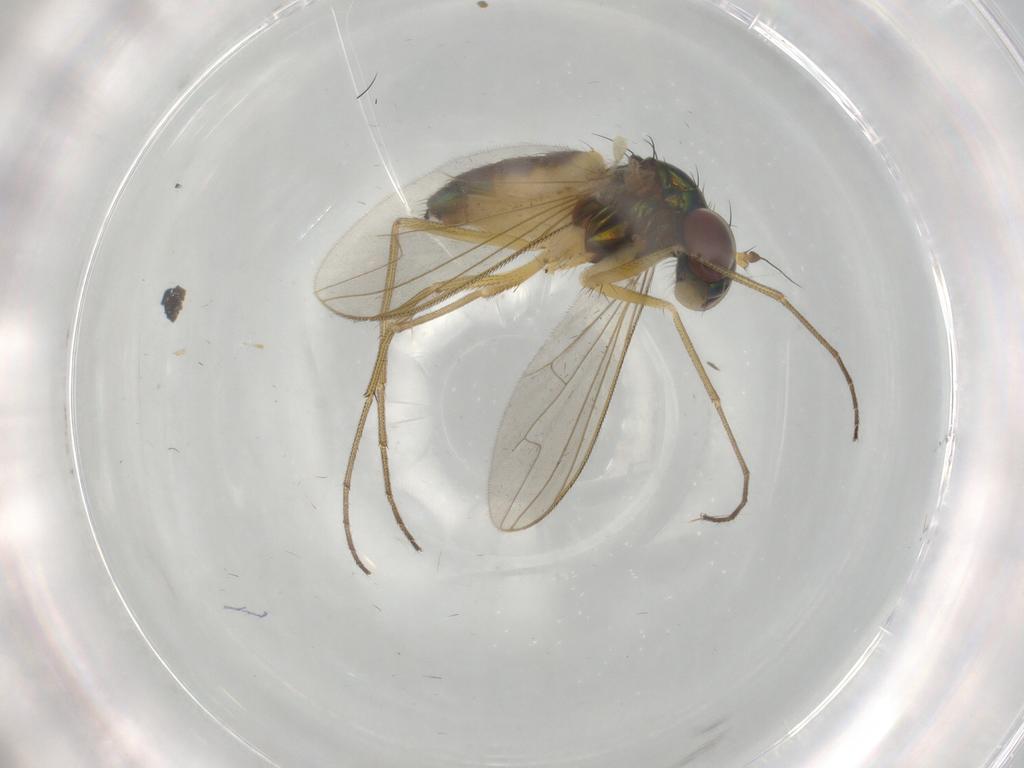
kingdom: Animalia
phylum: Arthropoda
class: Insecta
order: Diptera
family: Dolichopodidae
